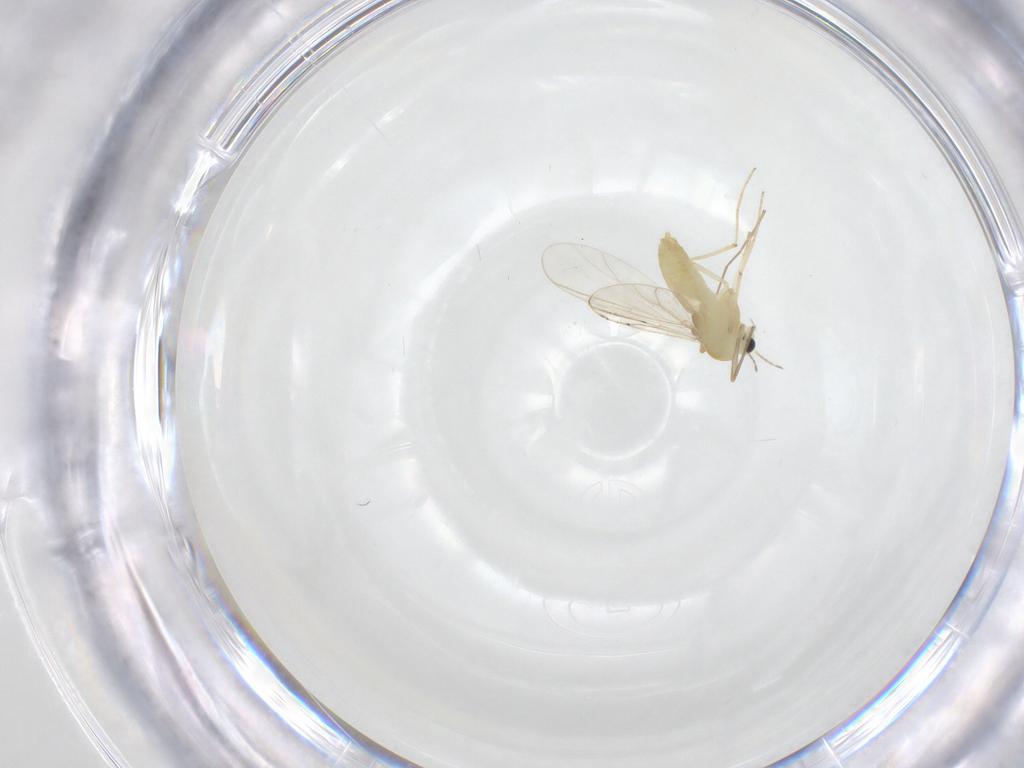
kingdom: Animalia
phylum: Arthropoda
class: Insecta
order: Diptera
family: Chironomidae
